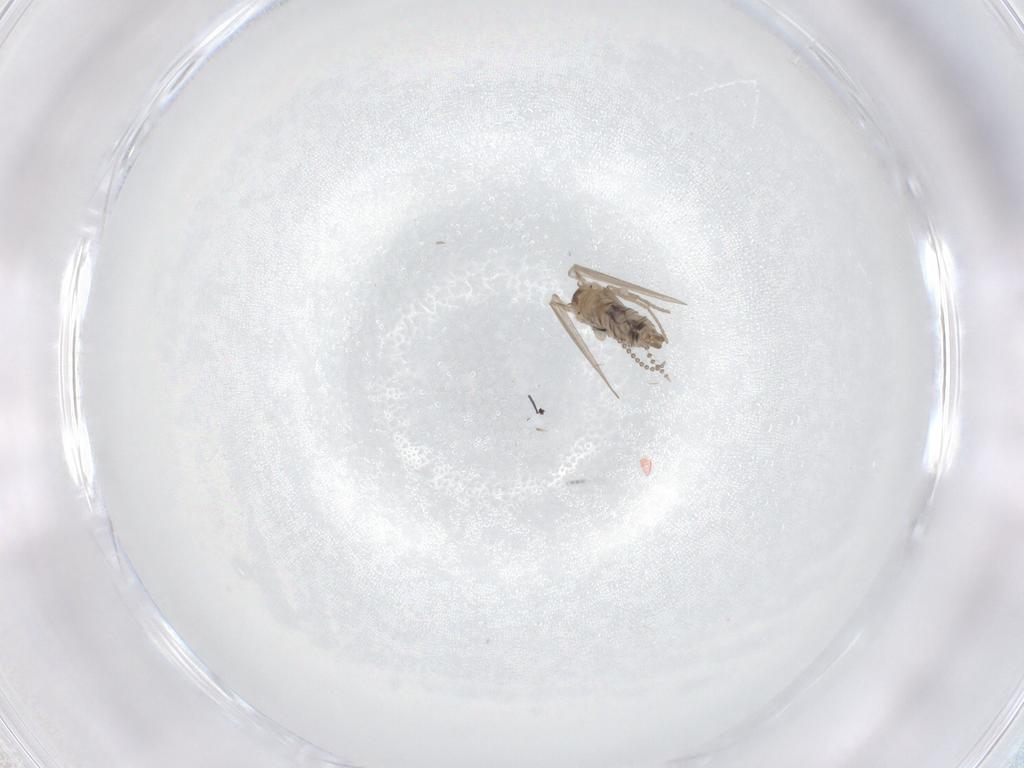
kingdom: Animalia
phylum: Arthropoda
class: Insecta
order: Diptera
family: Psychodidae
